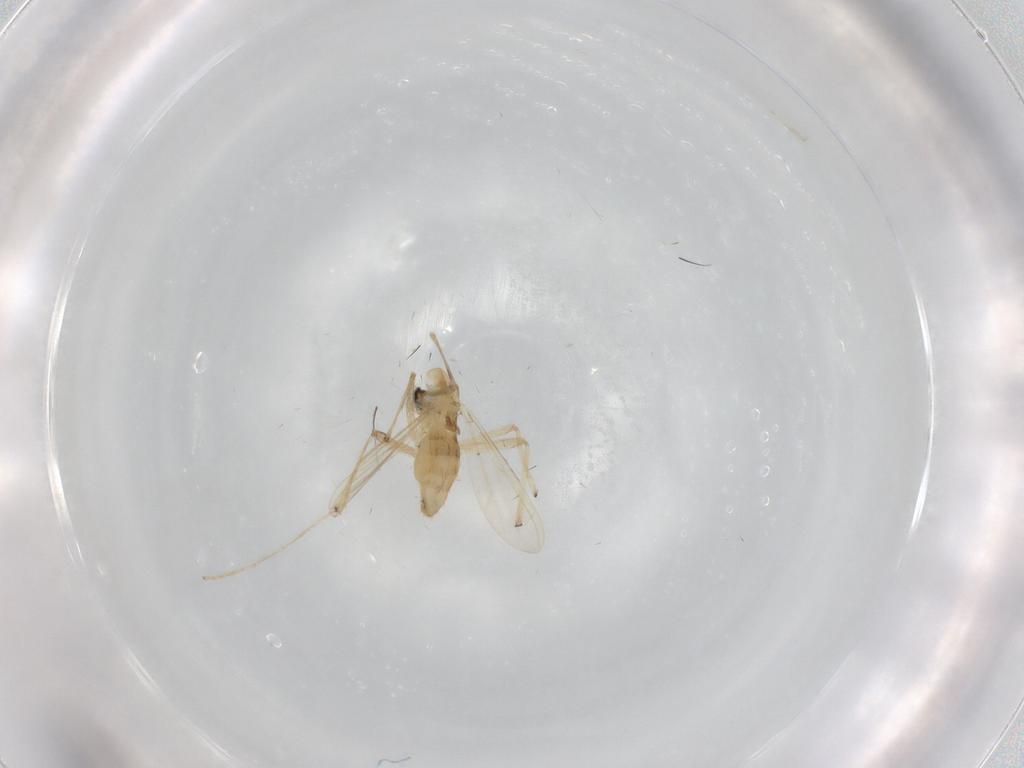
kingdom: Animalia
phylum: Arthropoda
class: Insecta
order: Diptera
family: Chironomidae
